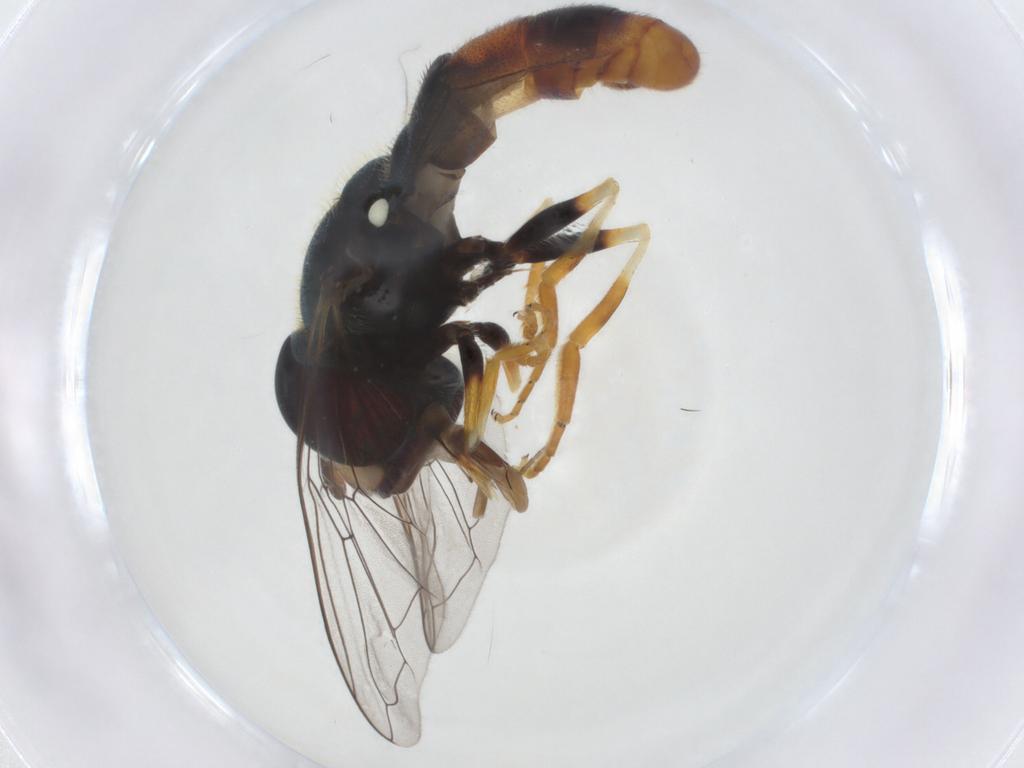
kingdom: Animalia
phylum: Arthropoda
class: Insecta
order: Diptera
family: Syrphidae
